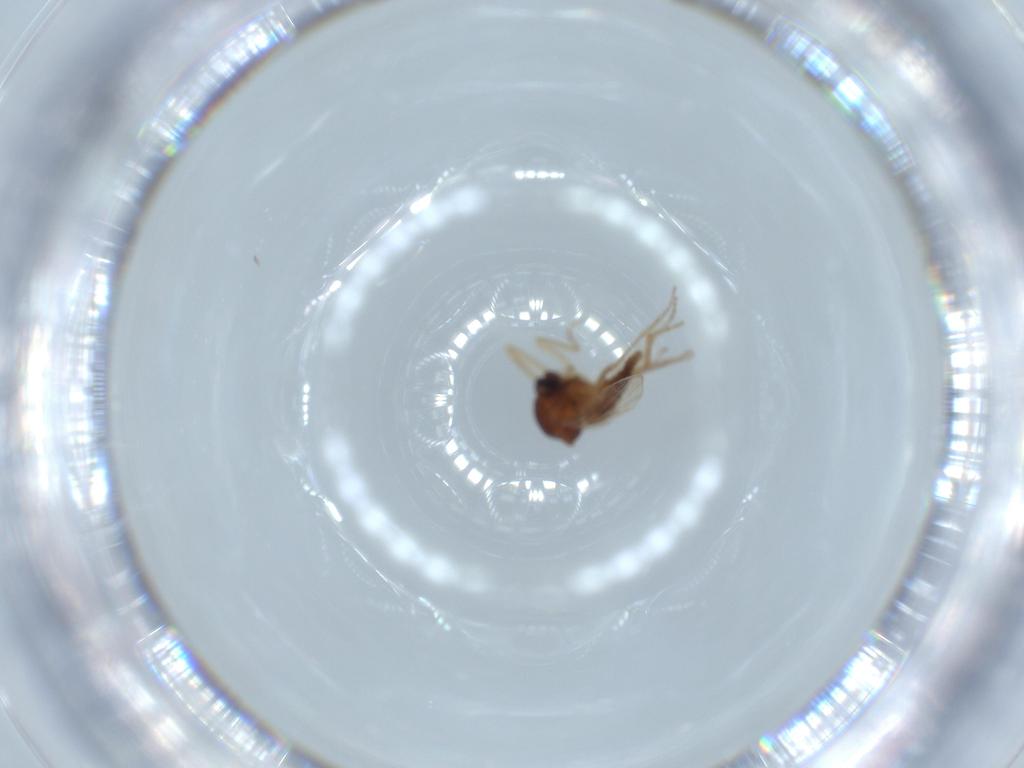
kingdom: Animalia
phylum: Arthropoda
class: Insecta
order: Diptera
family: Ceratopogonidae
